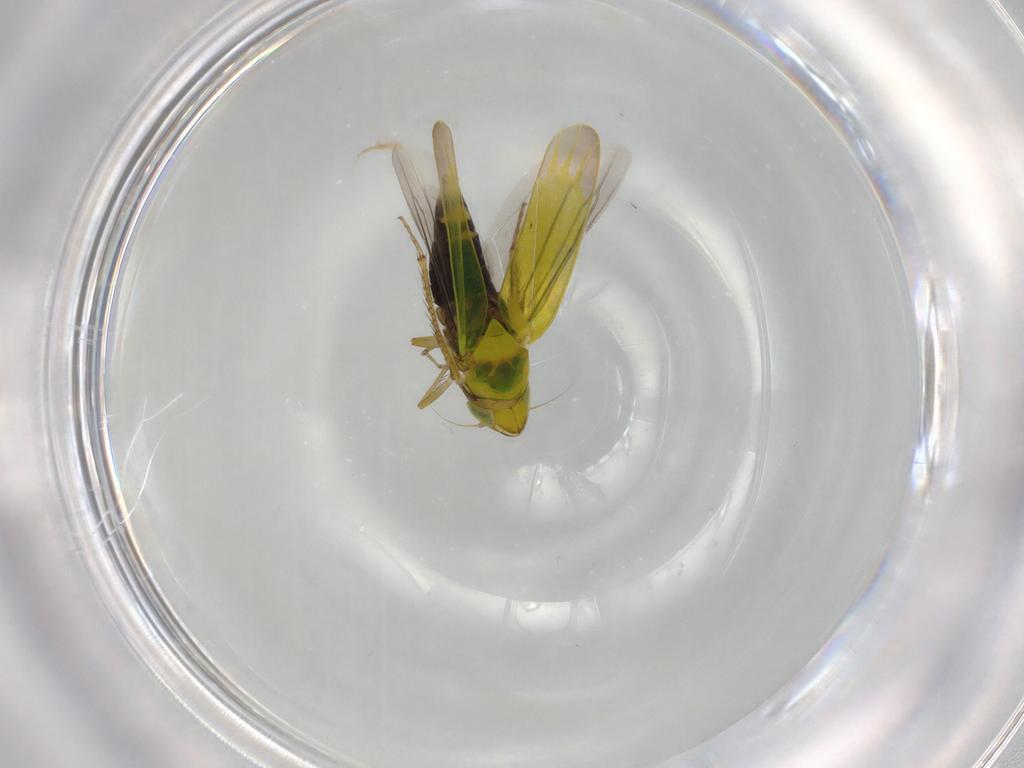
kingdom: Animalia
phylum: Arthropoda
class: Insecta
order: Hemiptera
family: Cicadellidae
